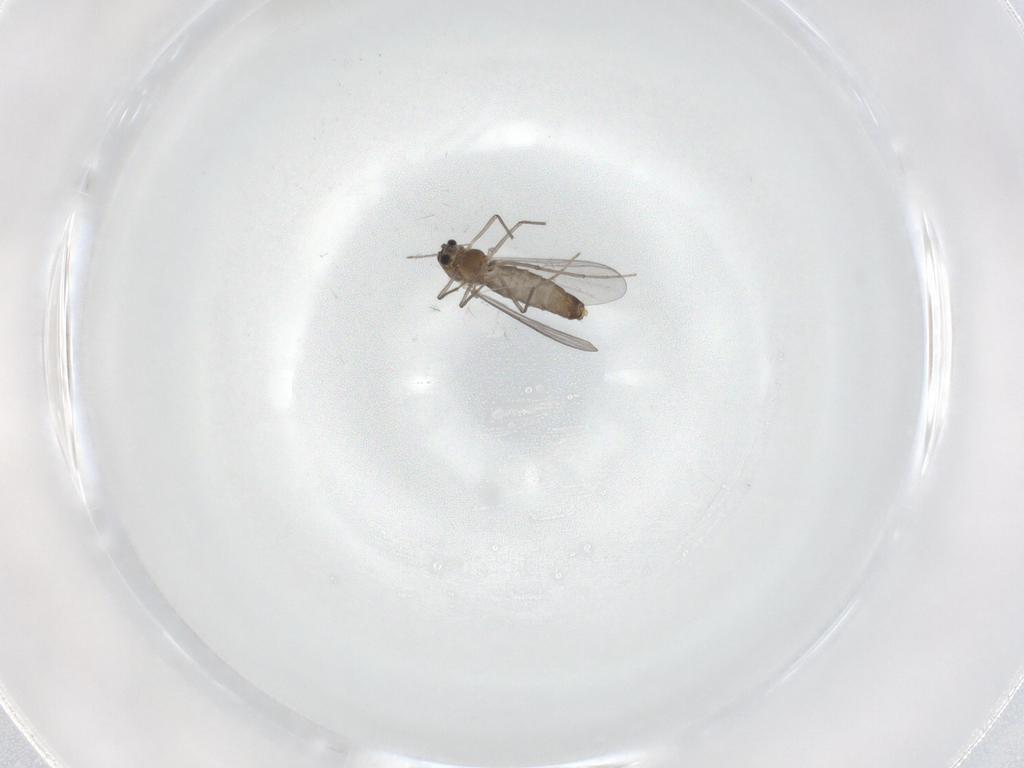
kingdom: Animalia
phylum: Arthropoda
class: Insecta
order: Diptera
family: Chironomidae
